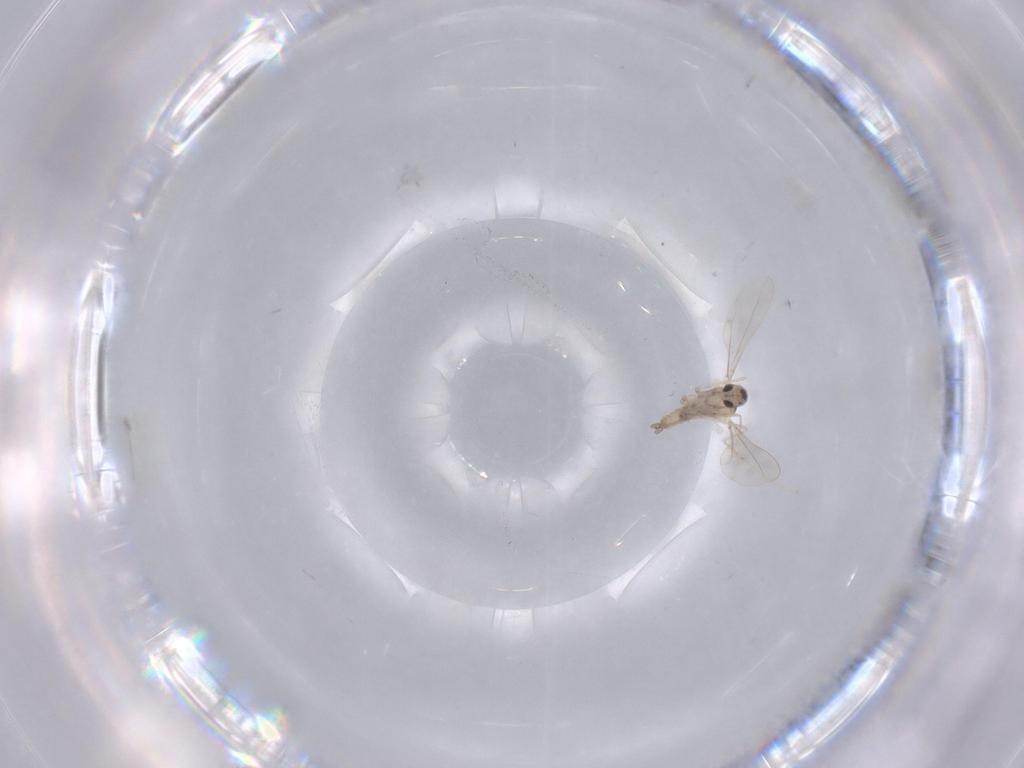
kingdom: Animalia
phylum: Arthropoda
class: Insecta
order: Diptera
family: Cecidomyiidae
